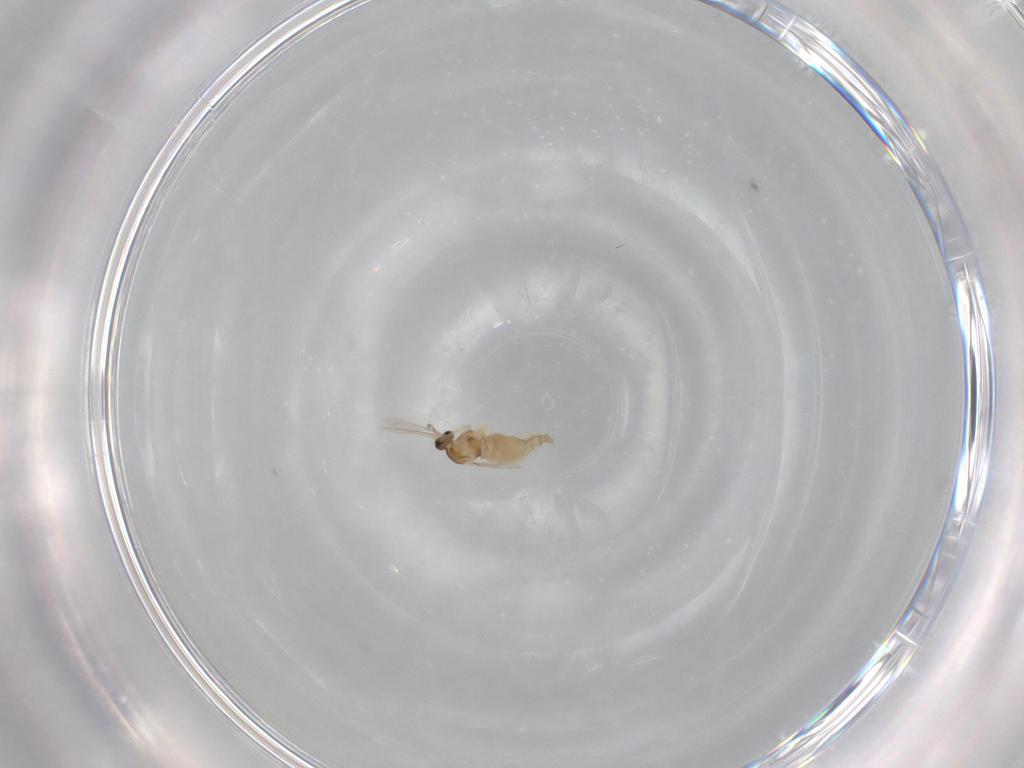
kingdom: Animalia
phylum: Arthropoda
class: Insecta
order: Diptera
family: Cecidomyiidae
